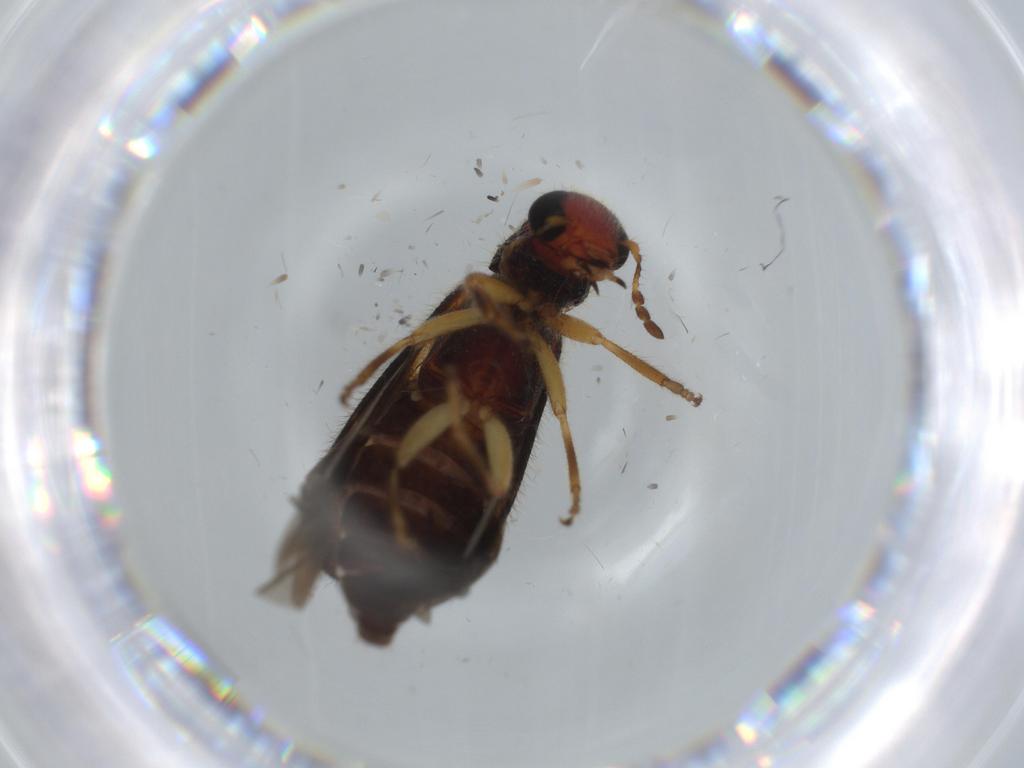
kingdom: Animalia
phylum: Arthropoda
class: Insecta
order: Coleoptera
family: Cleridae
